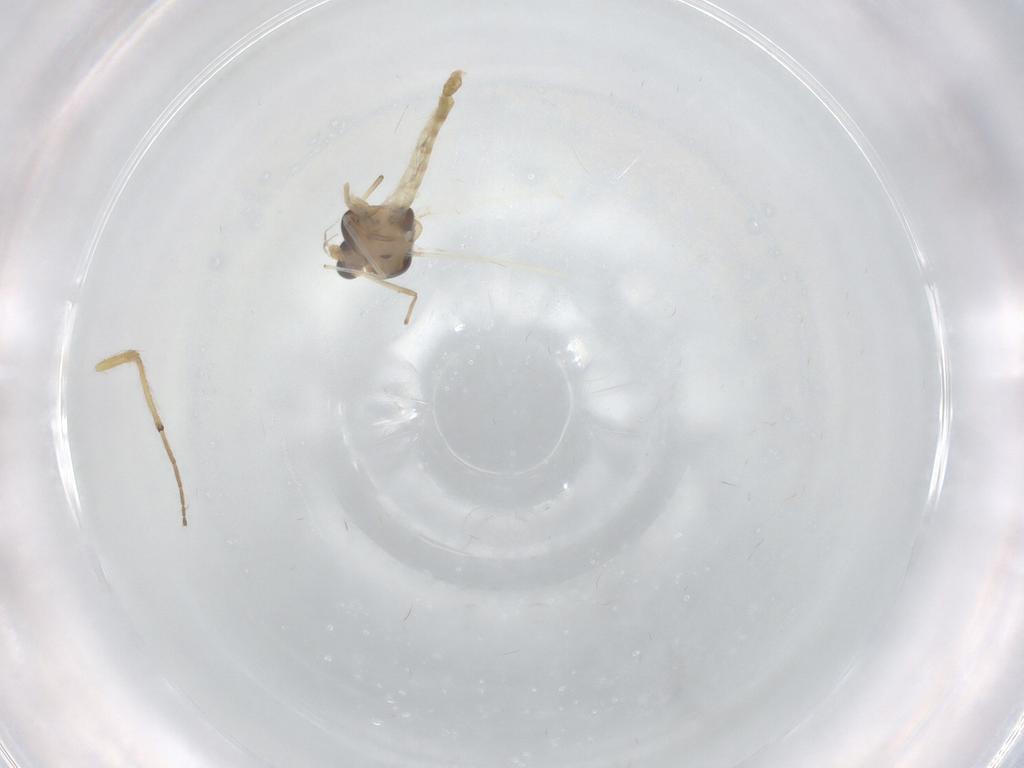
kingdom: Animalia
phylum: Arthropoda
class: Insecta
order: Diptera
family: Chironomidae
